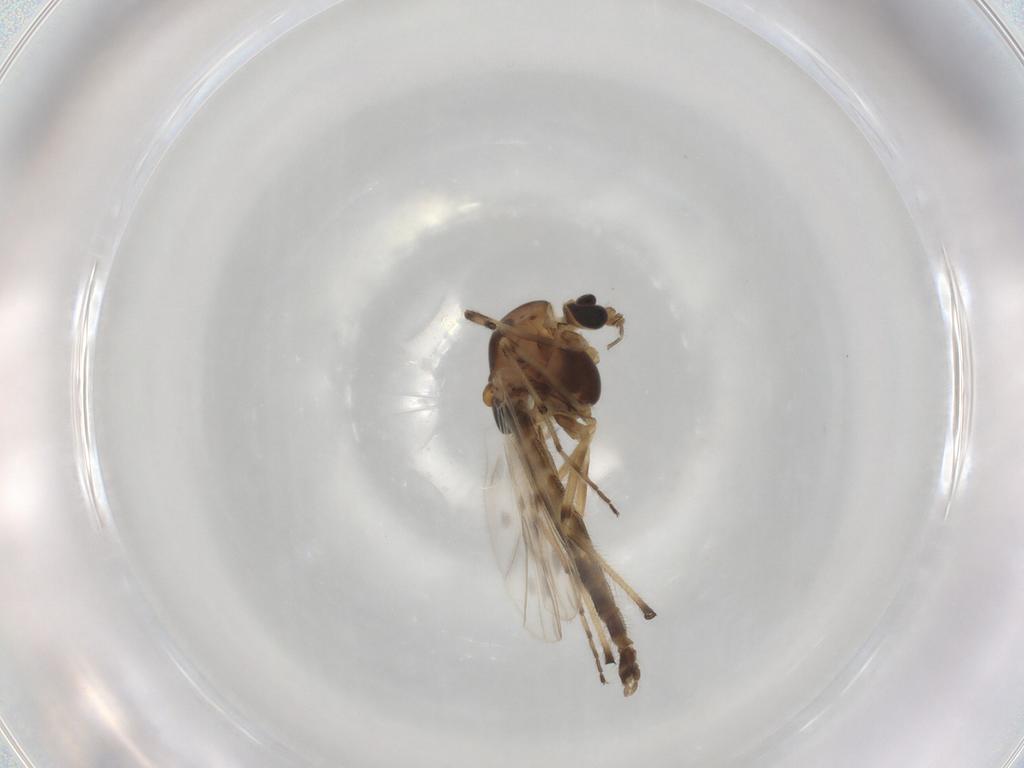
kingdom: Animalia
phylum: Arthropoda
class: Insecta
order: Diptera
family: Chironomidae
